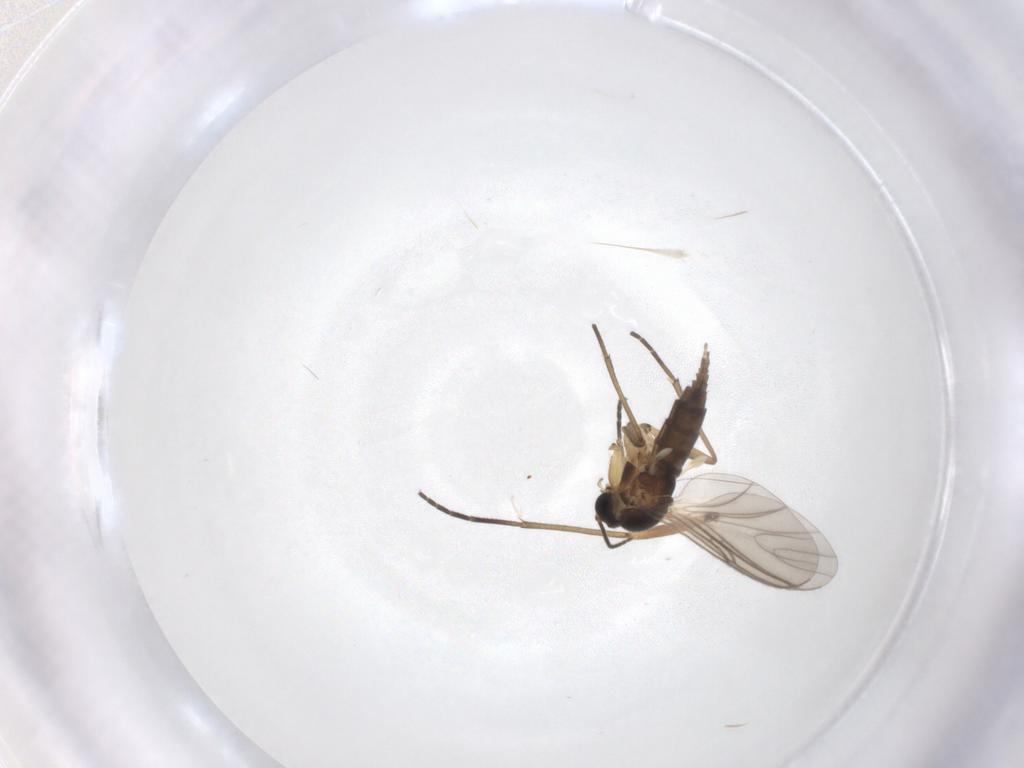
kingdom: Animalia
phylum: Arthropoda
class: Insecta
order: Diptera
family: Sciaridae
